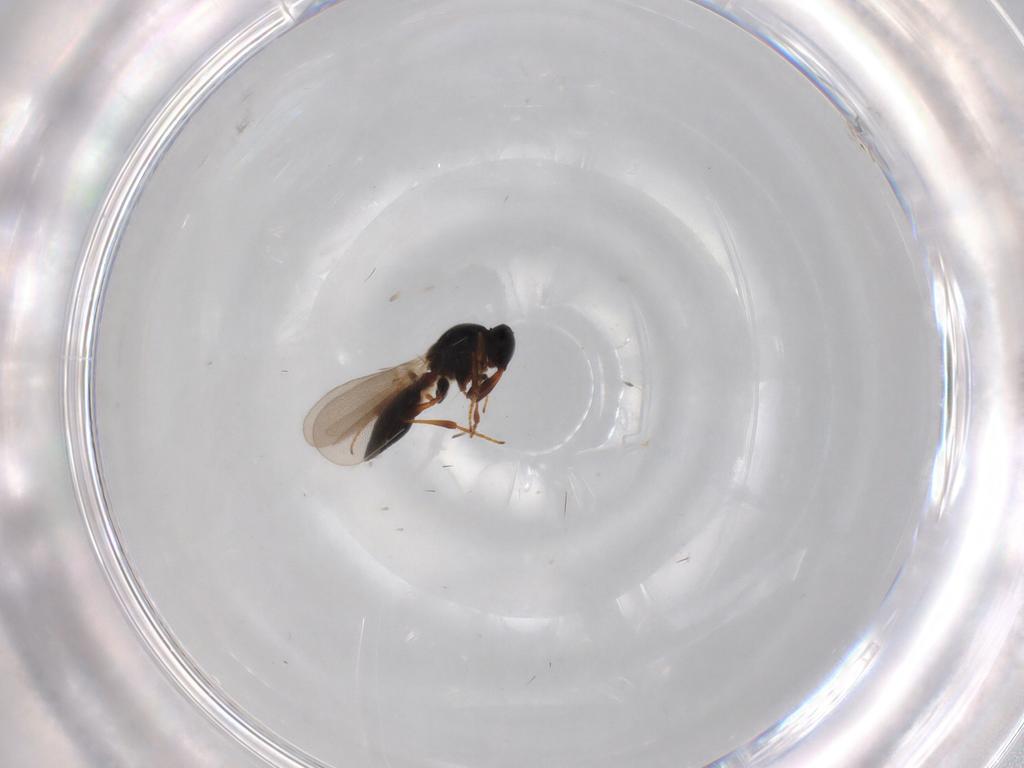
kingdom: Animalia
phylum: Arthropoda
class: Insecta
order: Hymenoptera
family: Platygastridae
